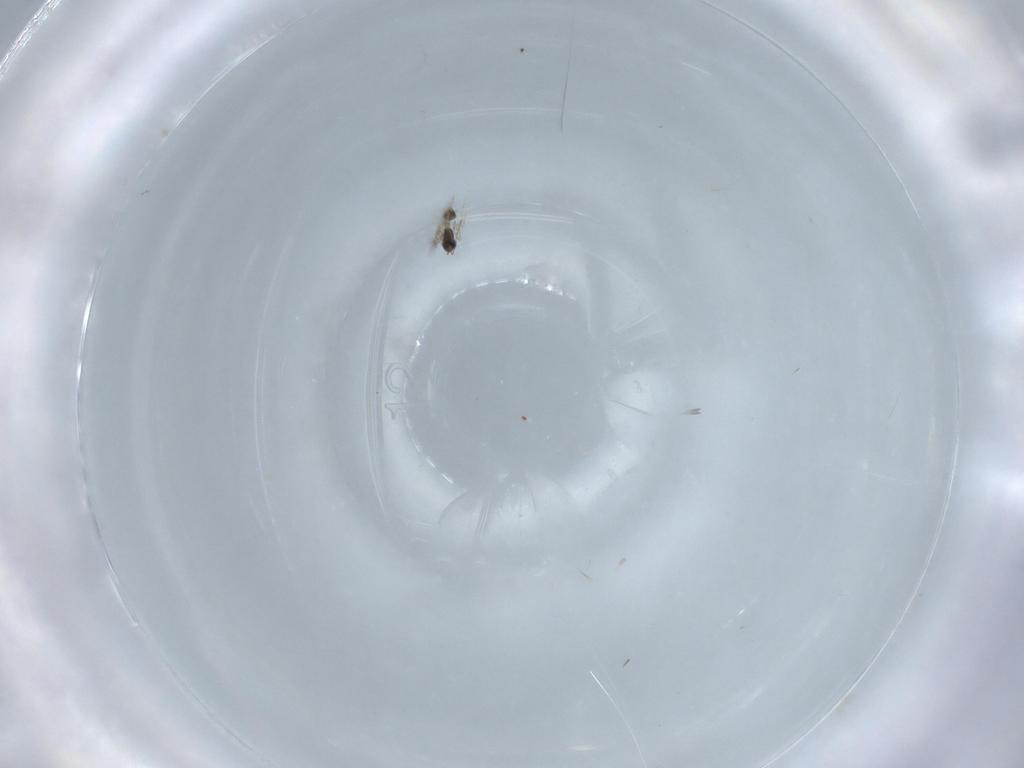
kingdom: Animalia
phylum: Arthropoda
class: Insecta
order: Hymenoptera
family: Mymarommatidae
